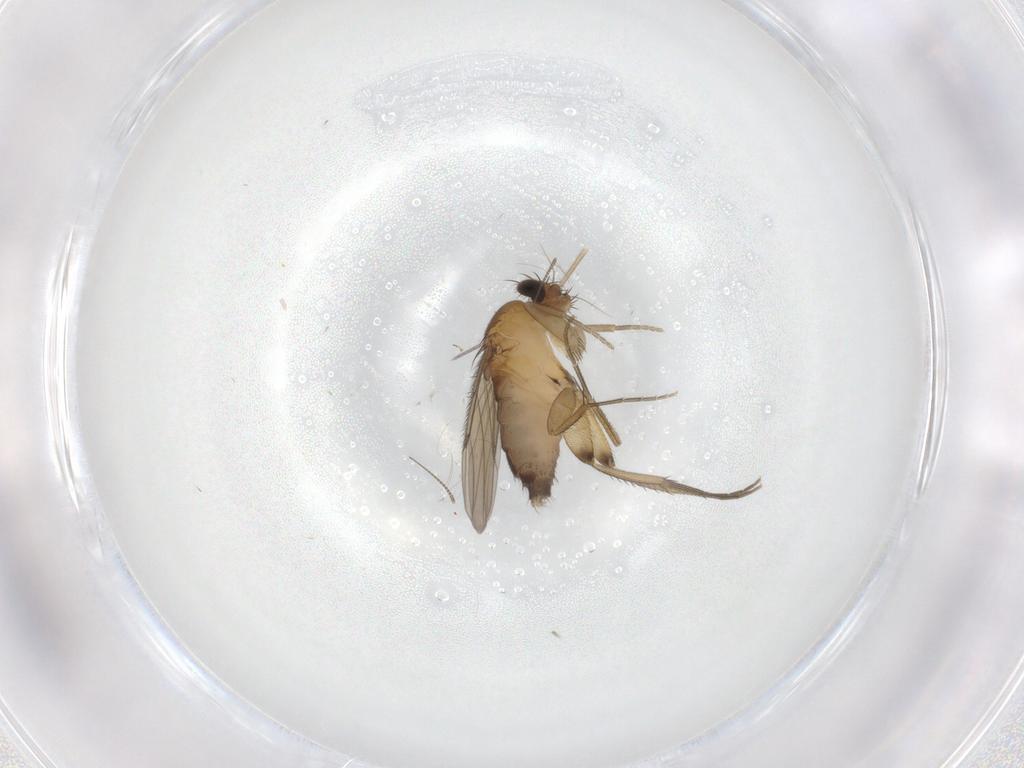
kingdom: Animalia
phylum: Arthropoda
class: Insecta
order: Diptera
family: Phoridae
